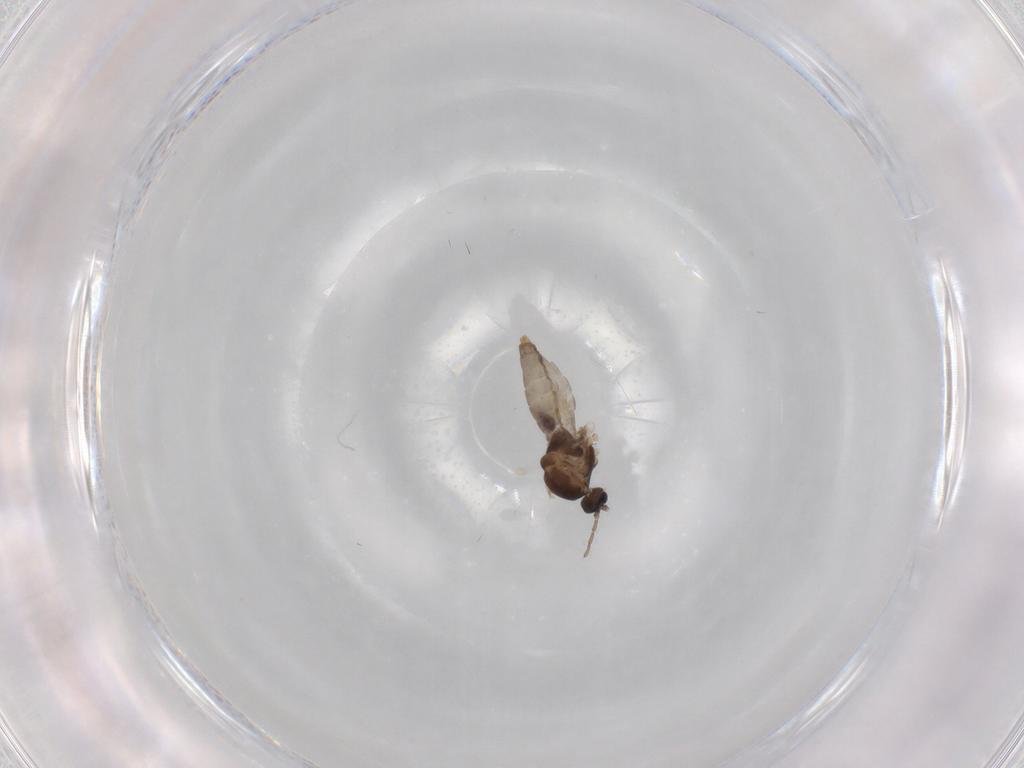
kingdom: Animalia
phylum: Arthropoda
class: Insecta
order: Diptera
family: Cecidomyiidae
